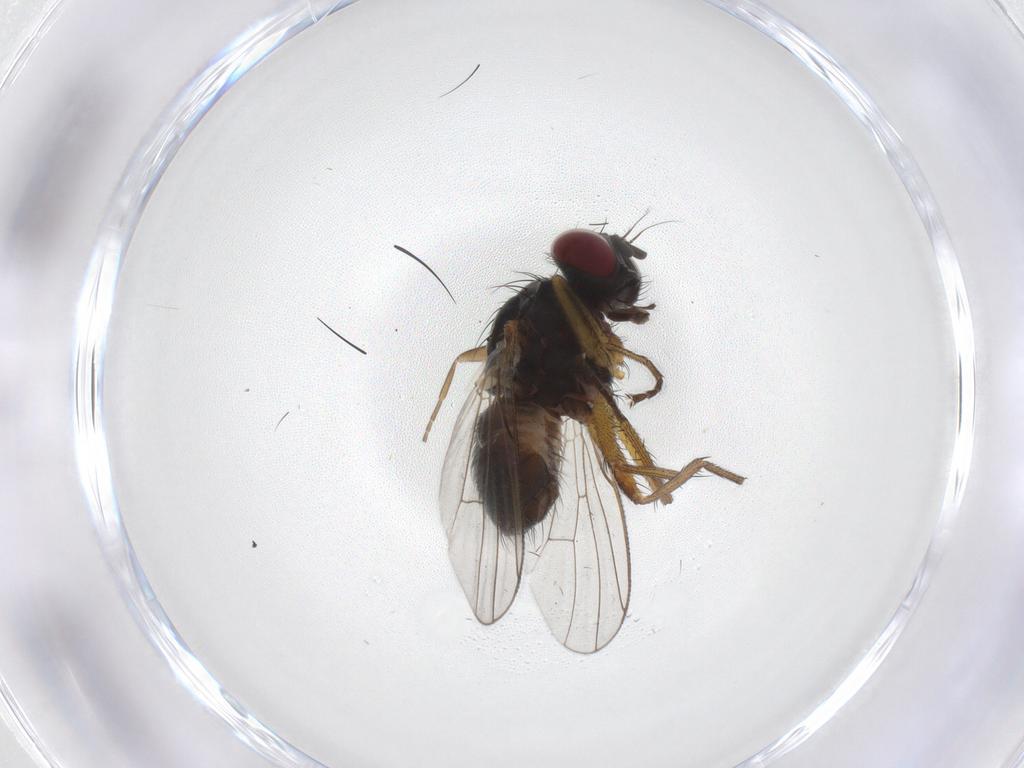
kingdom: Animalia
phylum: Arthropoda
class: Insecta
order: Diptera
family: Muscidae
